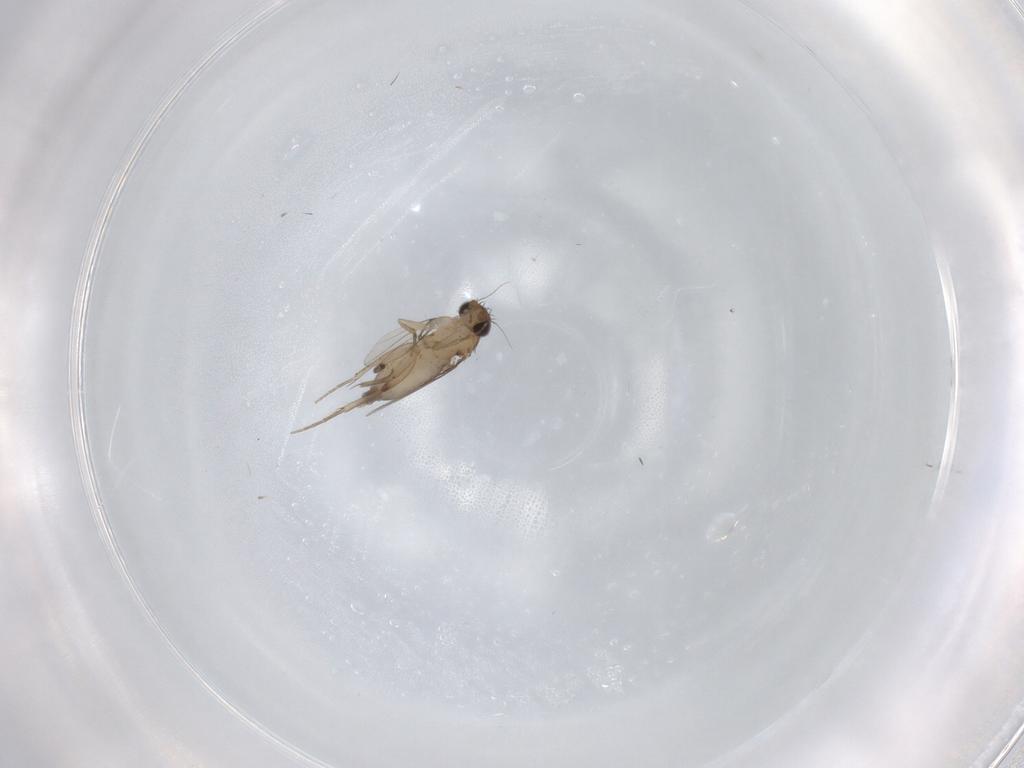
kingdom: Animalia
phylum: Arthropoda
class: Insecta
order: Diptera
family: Phoridae
